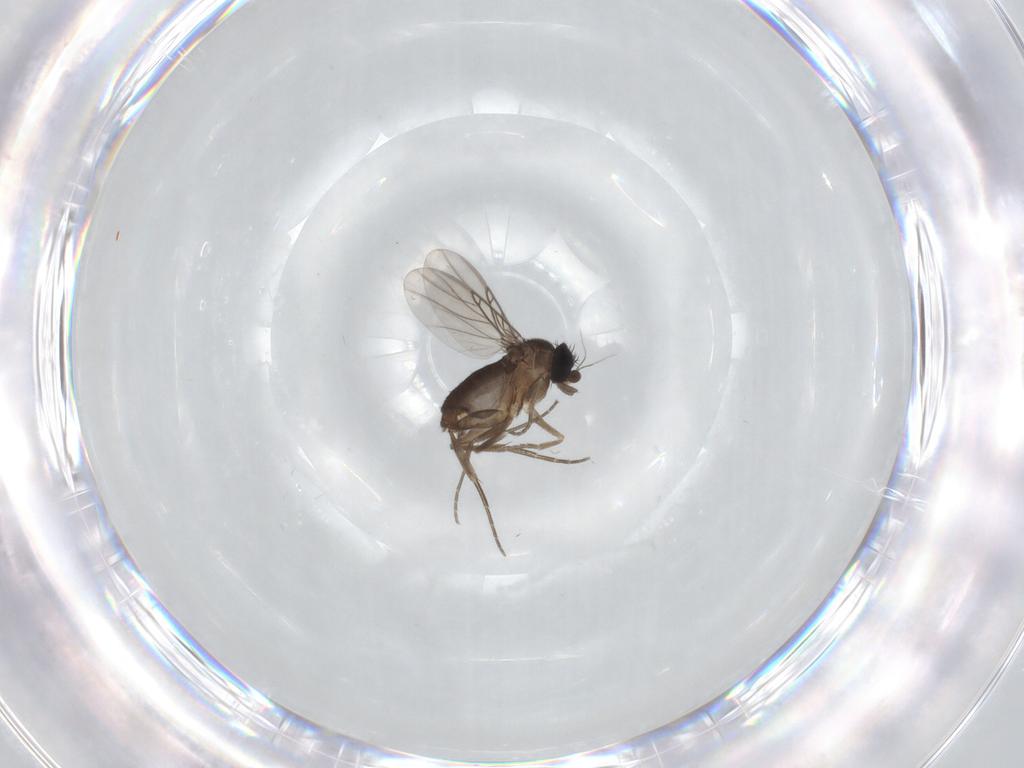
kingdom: Animalia
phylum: Arthropoda
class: Insecta
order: Diptera
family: Phoridae
